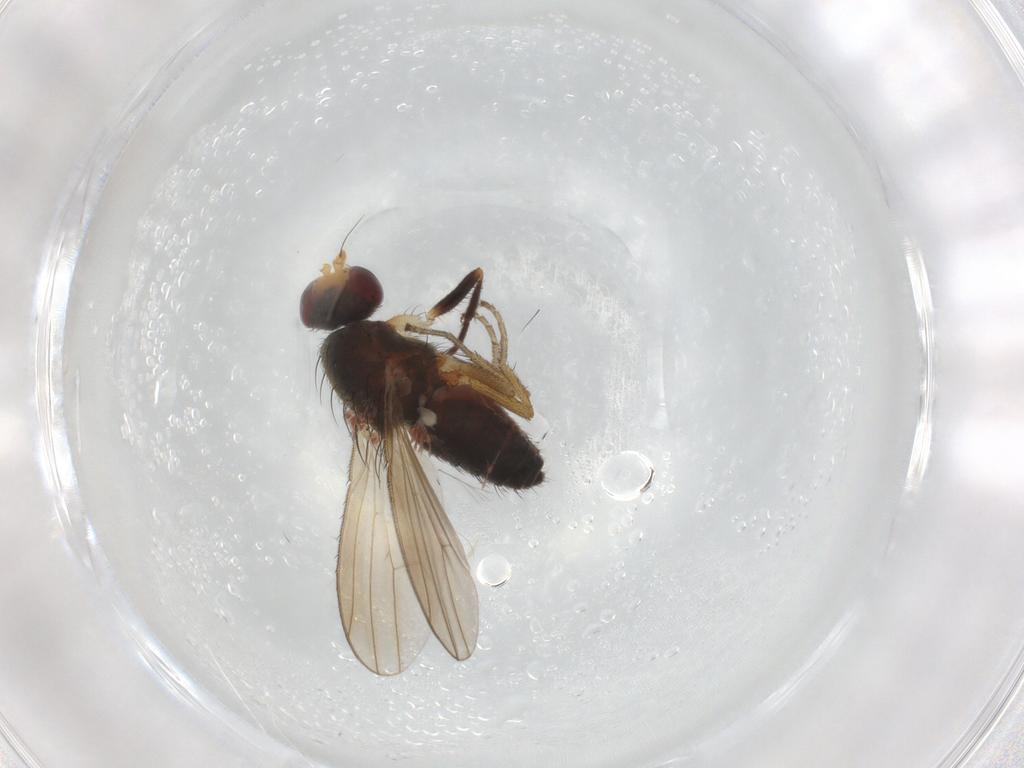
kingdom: Animalia
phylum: Arthropoda
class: Insecta
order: Diptera
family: Heleomyzidae
